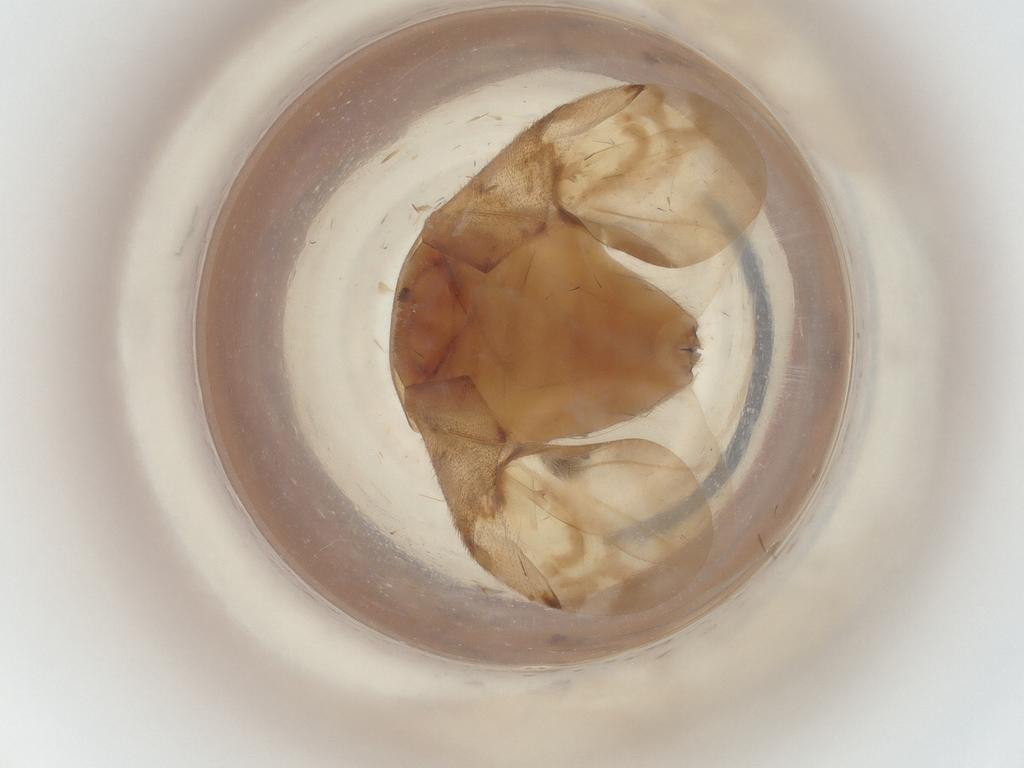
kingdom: Animalia
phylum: Arthropoda
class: Insecta
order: Hemiptera
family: Miridae
